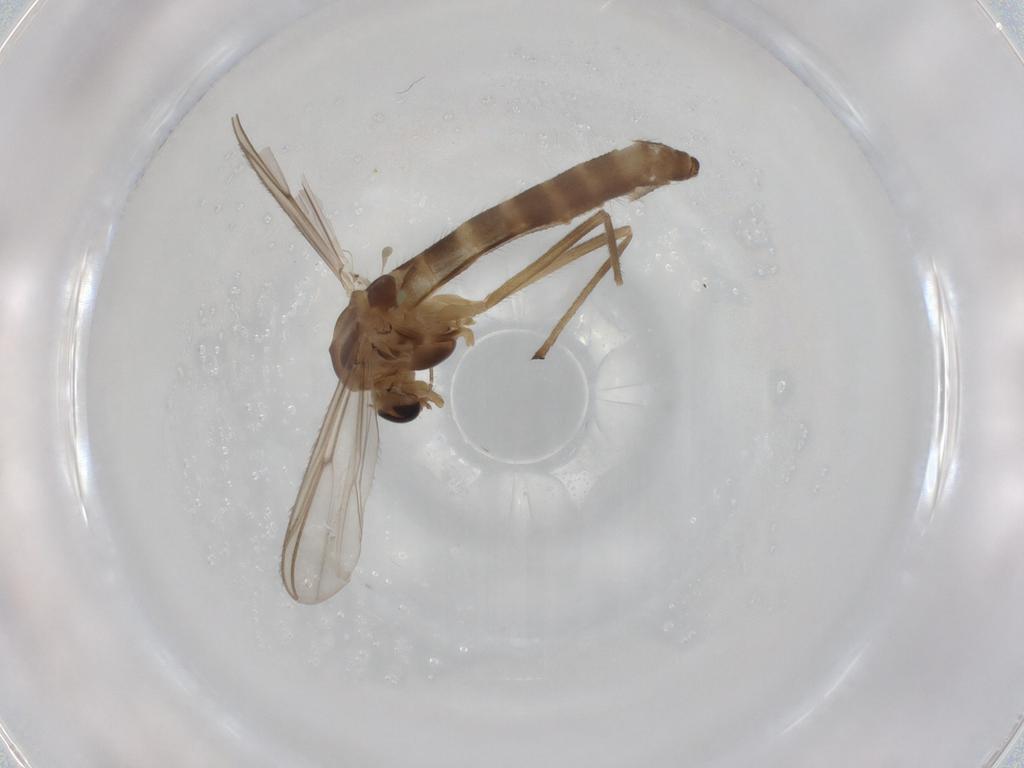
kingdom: Animalia
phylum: Arthropoda
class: Insecta
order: Diptera
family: Chironomidae
